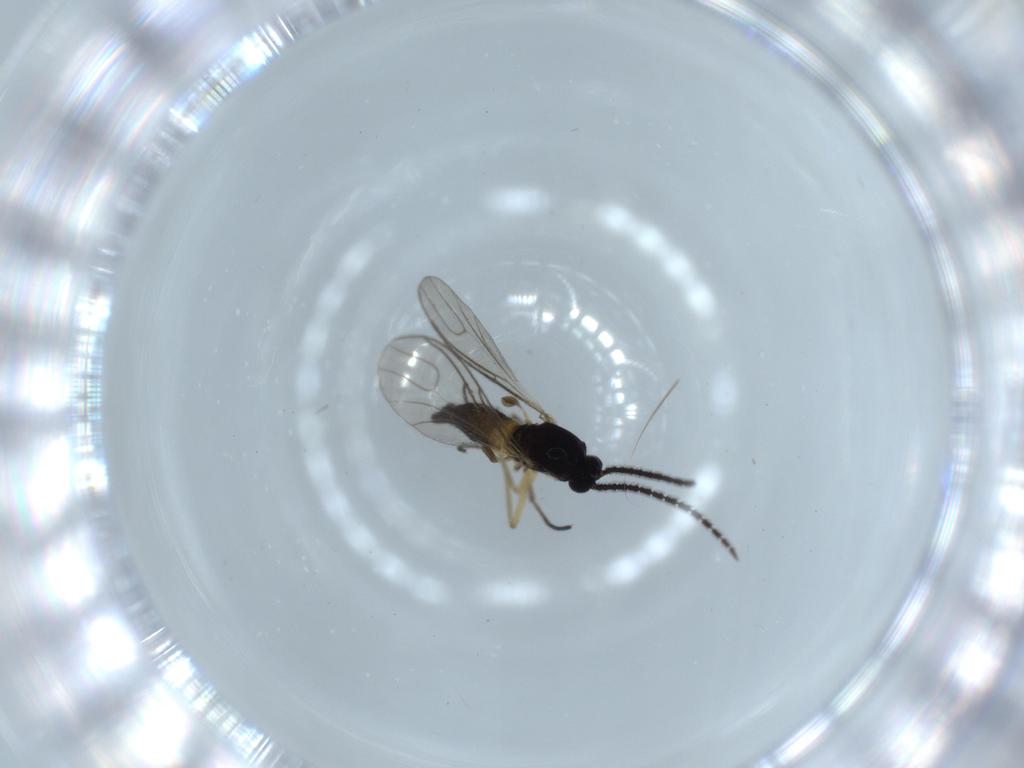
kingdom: Animalia
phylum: Arthropoda
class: Insecta
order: Diptera
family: Sciaridae
